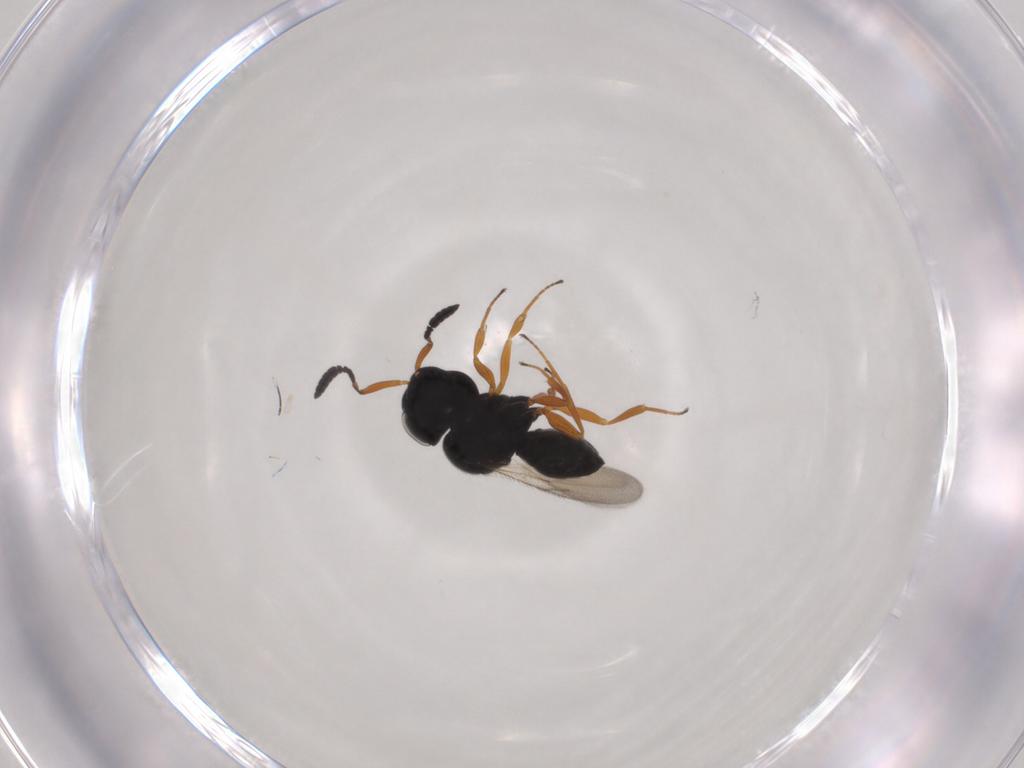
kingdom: Animalia
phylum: Arthropoda
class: Insecta
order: Hymenoptera
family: Scelionidae
